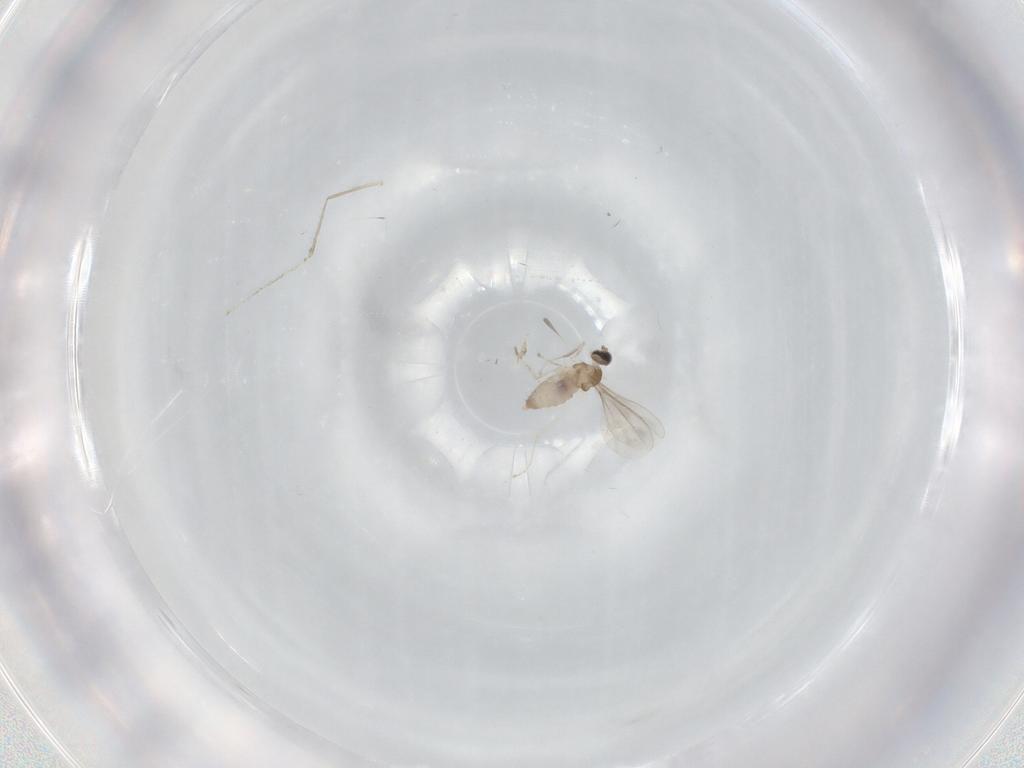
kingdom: Animalia
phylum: Arthropoda
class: Insecta
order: Diptera
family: Cecidomyiidae
